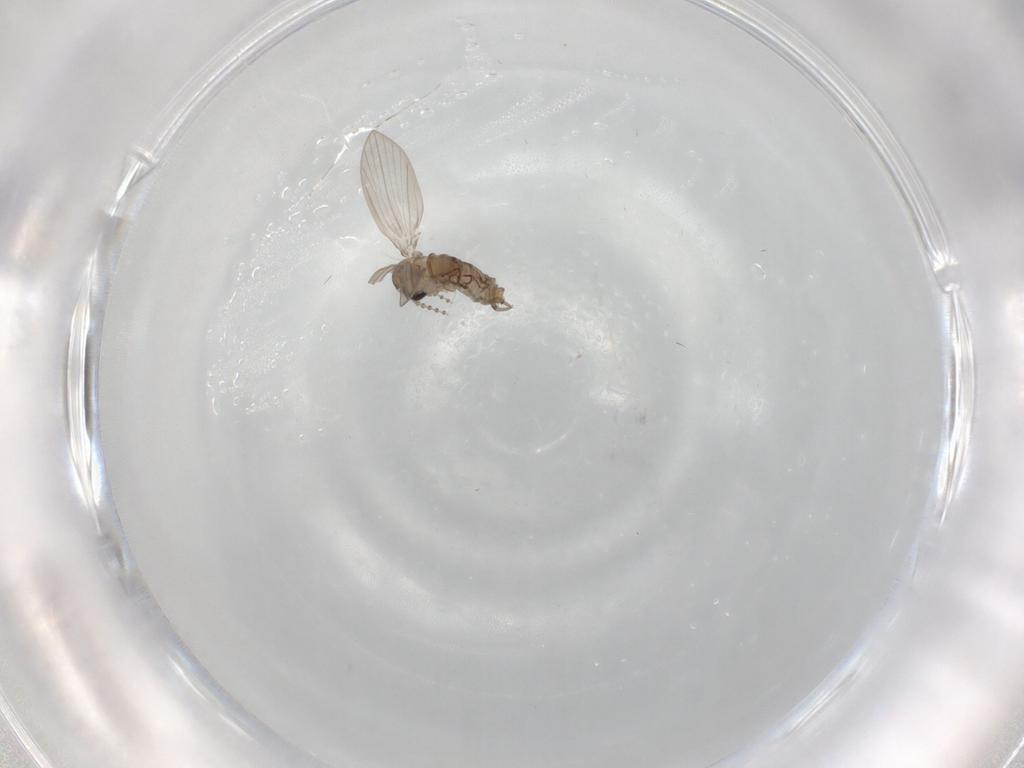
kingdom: Animalia
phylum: Arthropoda
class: Insecta
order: Diptera
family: Psychodidae
